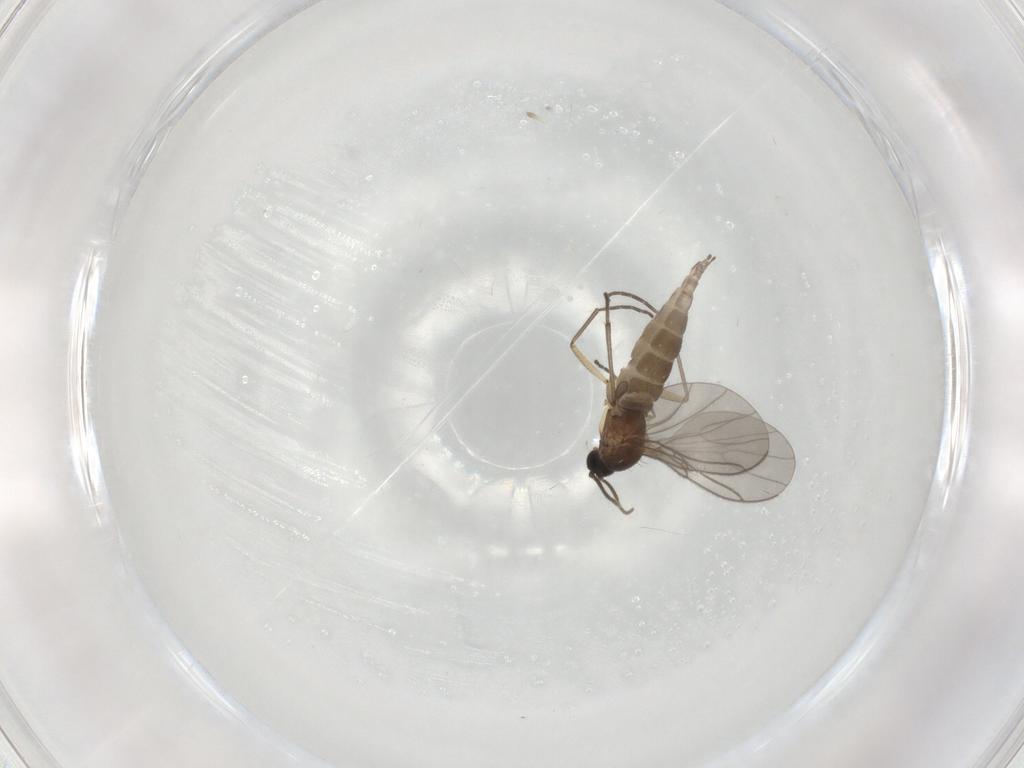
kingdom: Animalia
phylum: Arthropoda
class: Insecta
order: Diptera
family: Sciaridae
